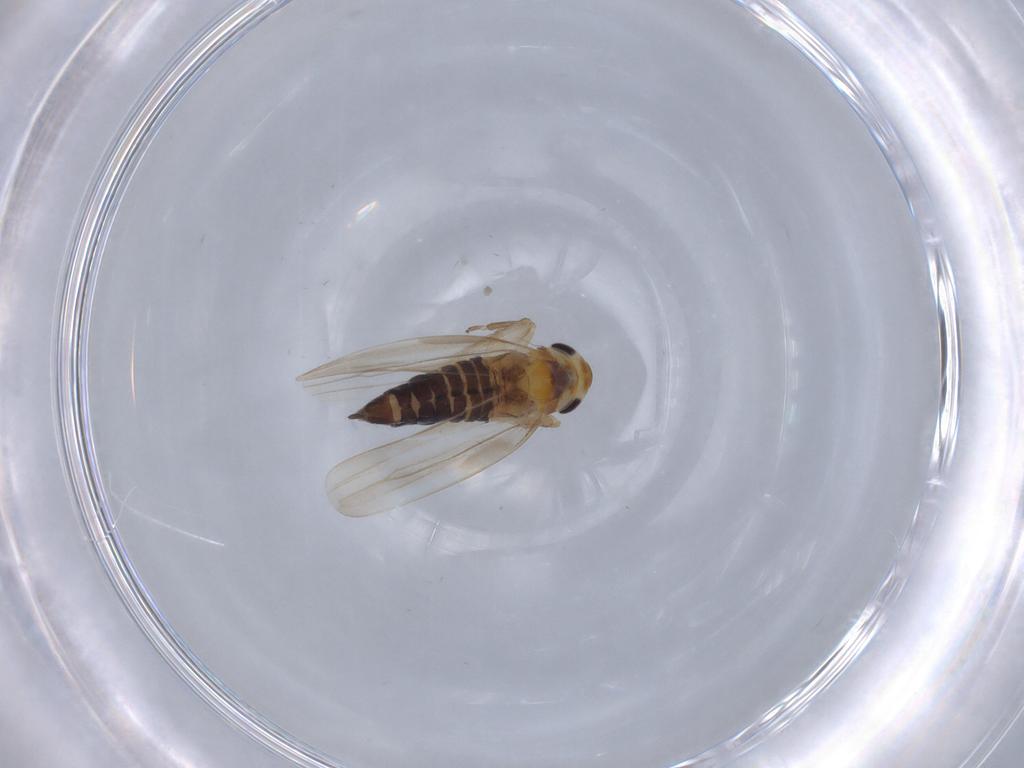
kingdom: Animalia
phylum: Arthropoda
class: Insecta
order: Hemiptera
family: Cicadellidae
